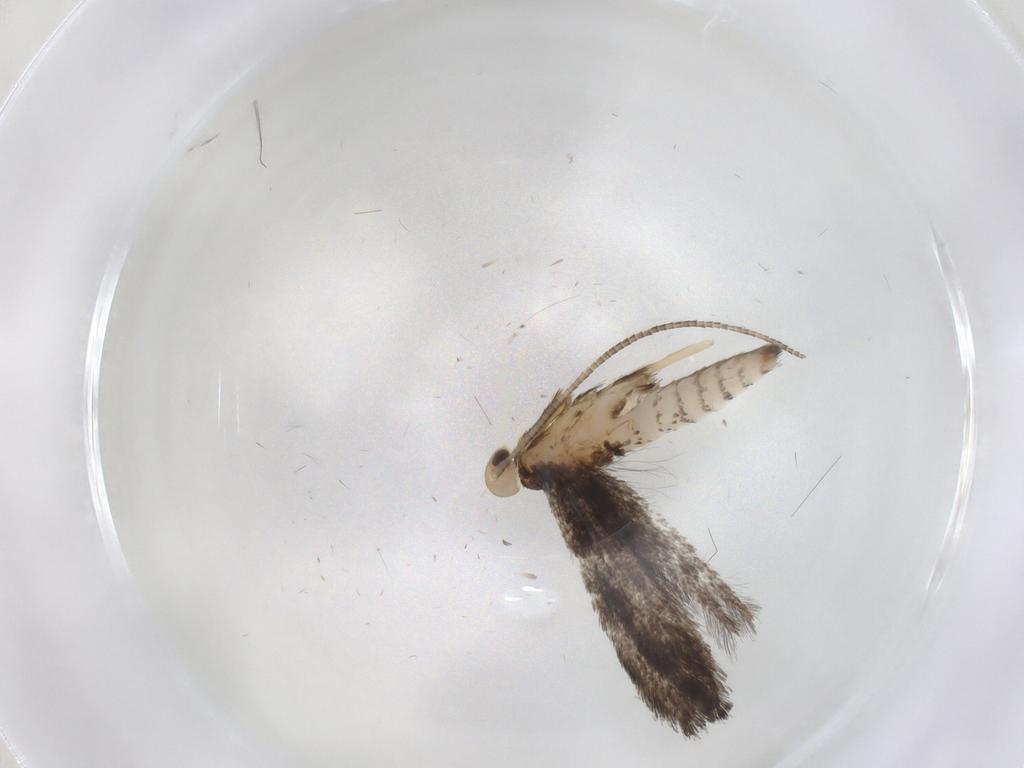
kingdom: Animalia
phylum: Arthropoda
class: Insecta
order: Lepidoptera
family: Geometridae
